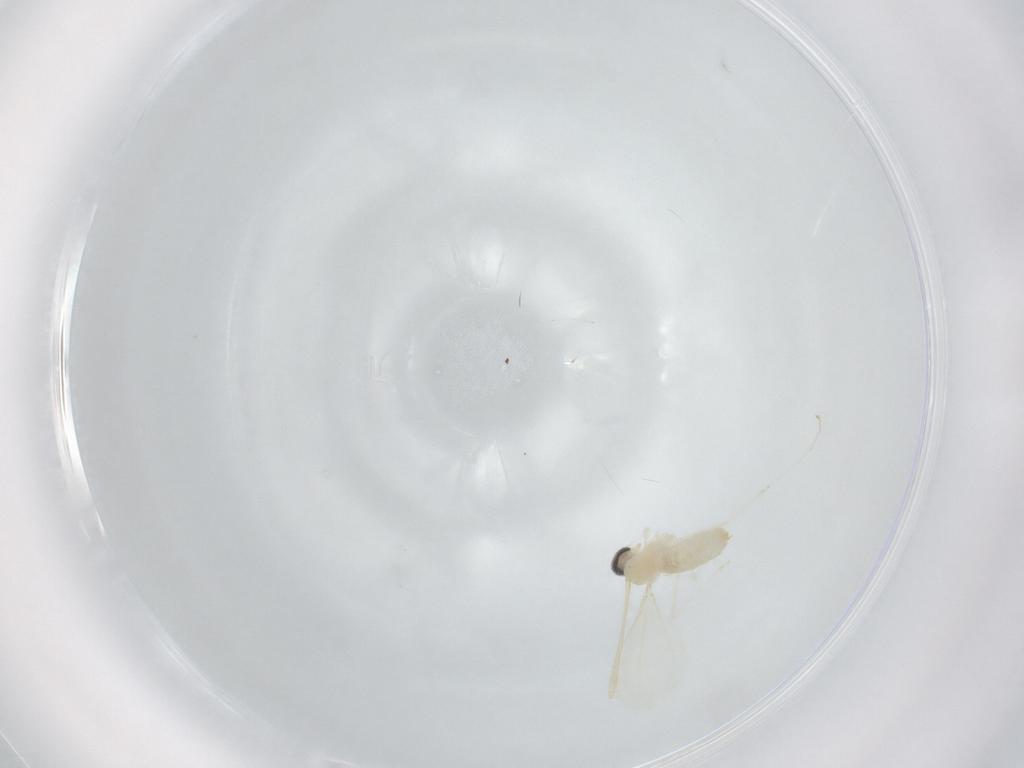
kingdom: Animalia
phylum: Arthropoda
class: Insecta
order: Diptera
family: Cecidomyiidae
